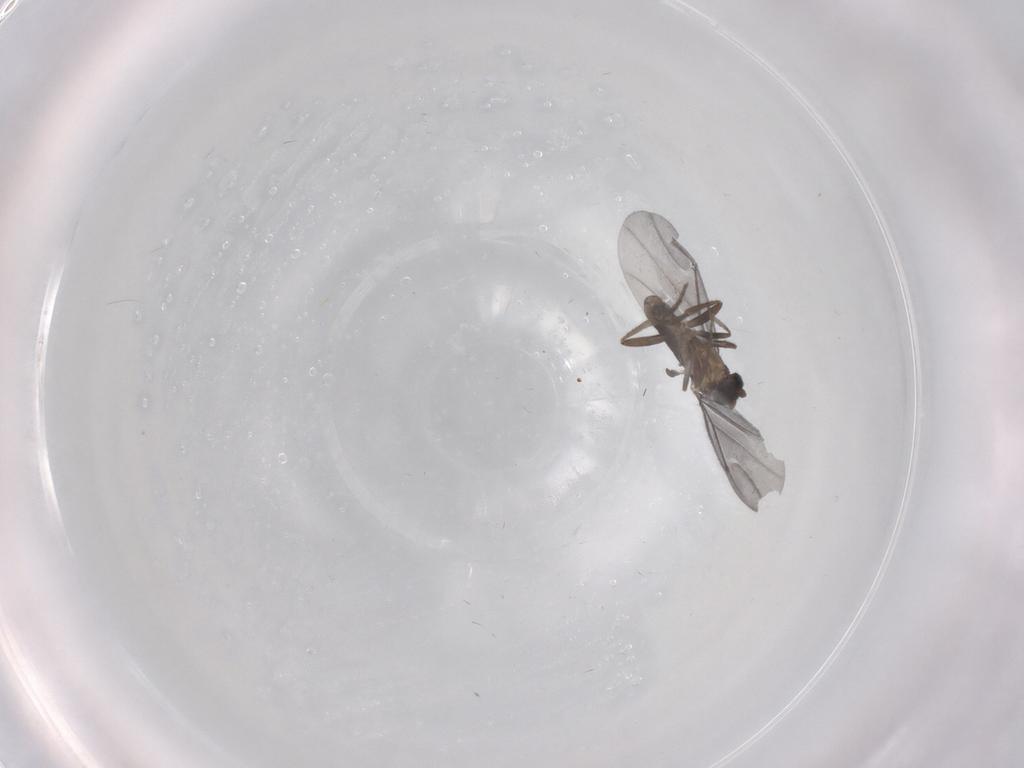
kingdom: Animalia
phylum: Arthropoda
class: Insecta
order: Diptera
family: Phoridae
